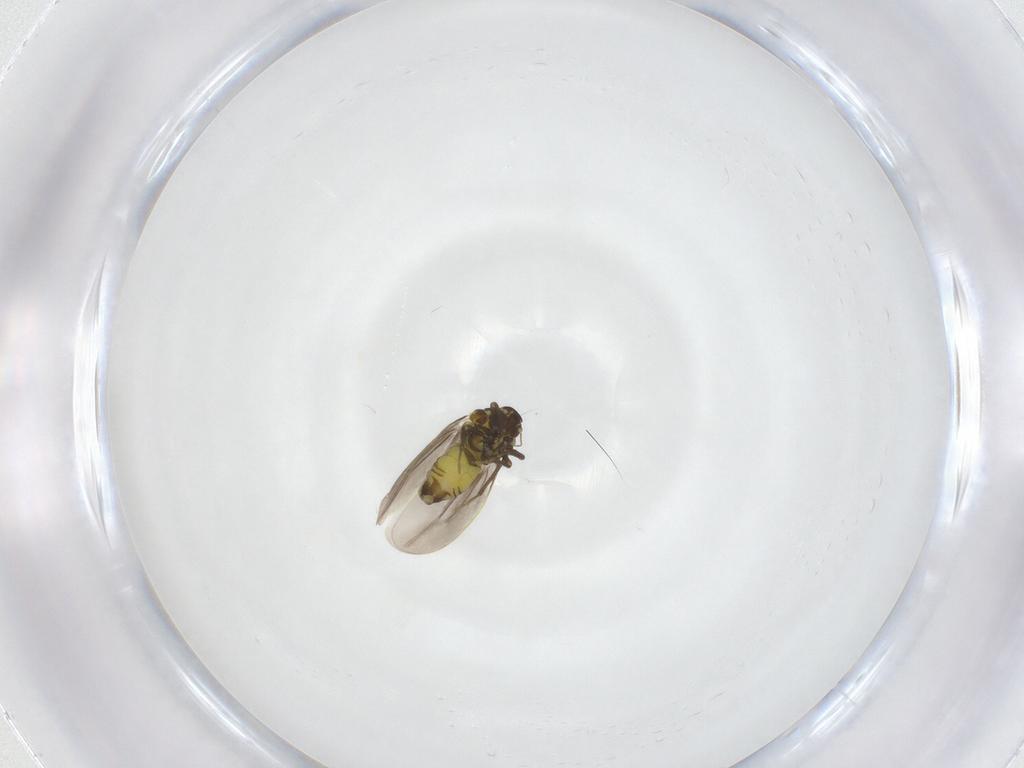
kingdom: Animalia
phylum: Arthropoda
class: Insecta
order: Hemiptera
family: Aleyrodidae
